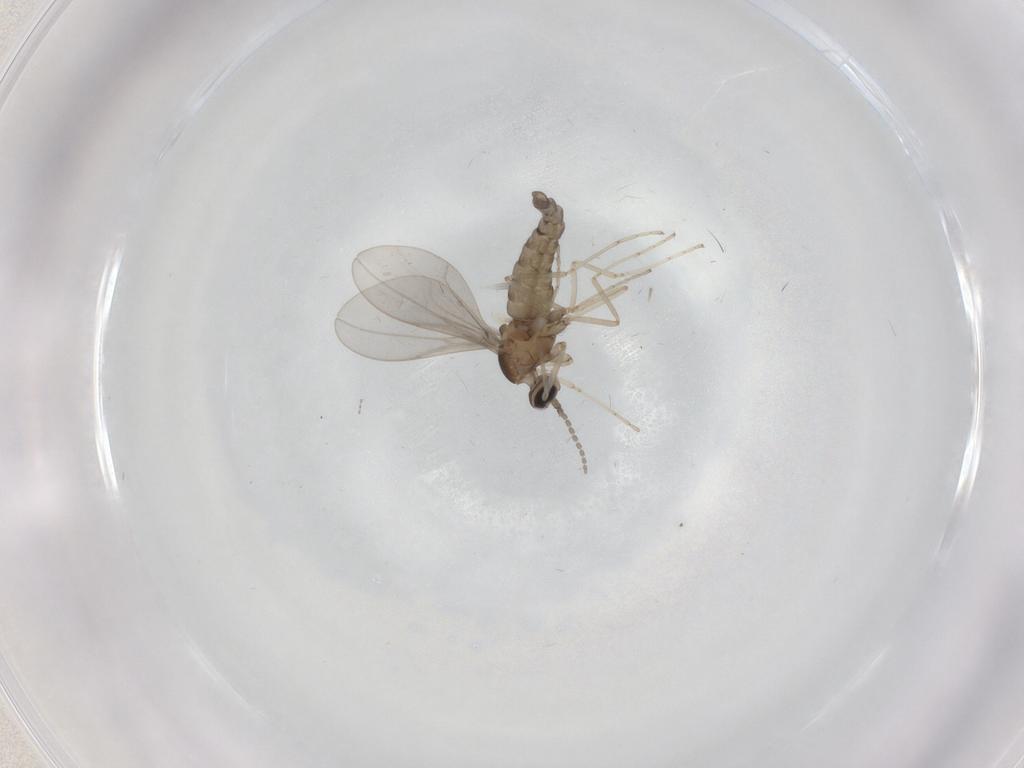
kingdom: Animalia
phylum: Arthropoda
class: Insecta
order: Diptera
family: Cecidomyiidae
